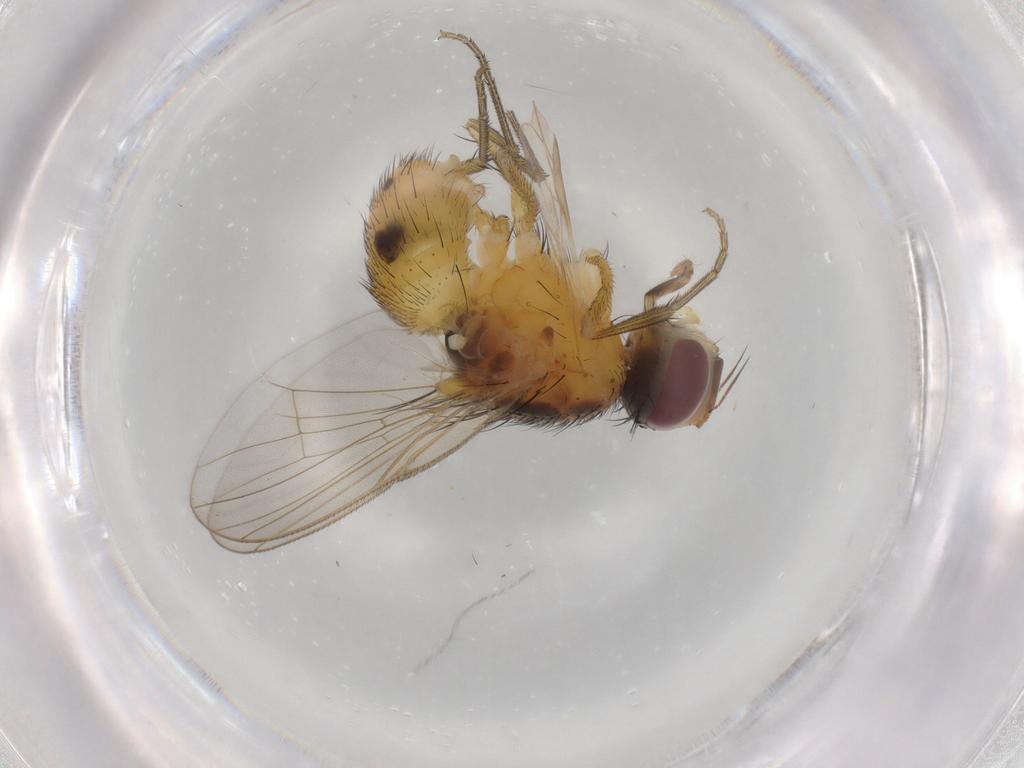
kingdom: Animalia
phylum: Arthropoda
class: Insecta
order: Diptera
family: Muscidae
